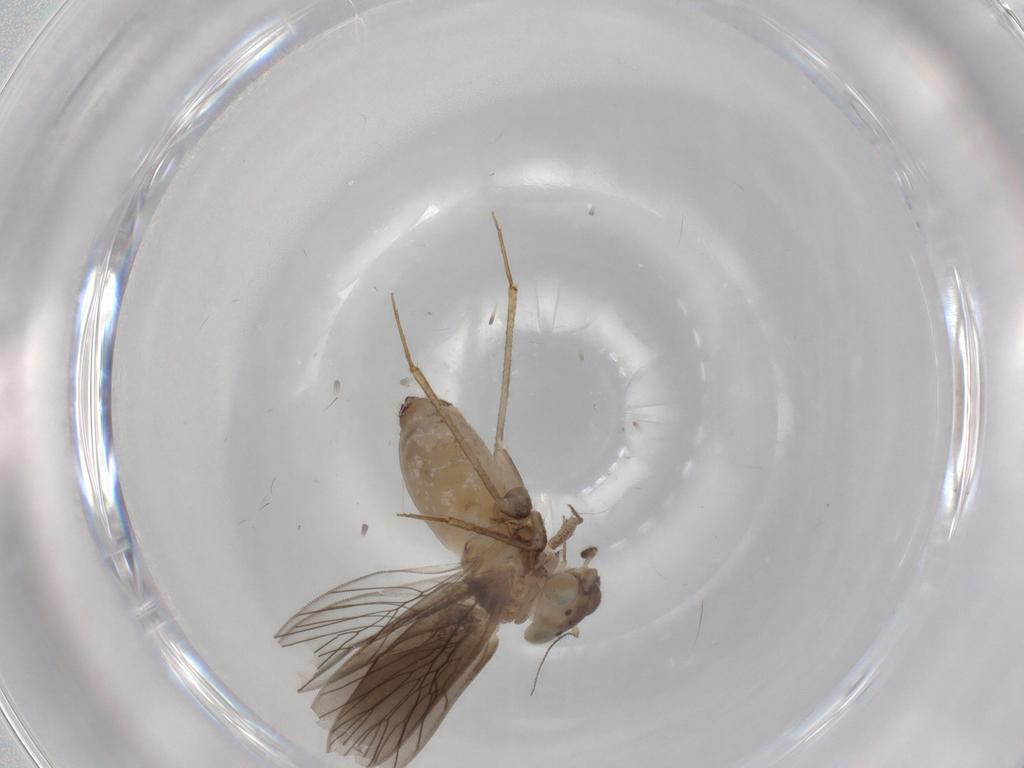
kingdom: Animalia
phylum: Arthropoda
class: Insecta
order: Psocodea
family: Lepidopsocidae
